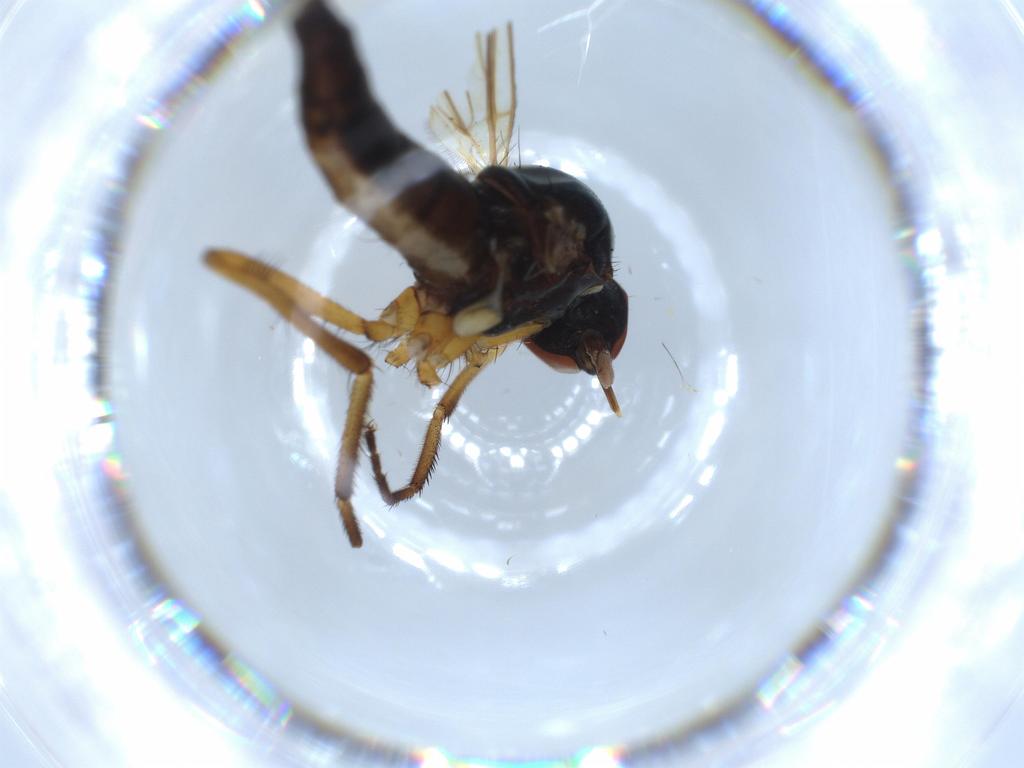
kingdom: Animalia
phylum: Arthropoda
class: Insecta
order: Diptera
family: Empididae
